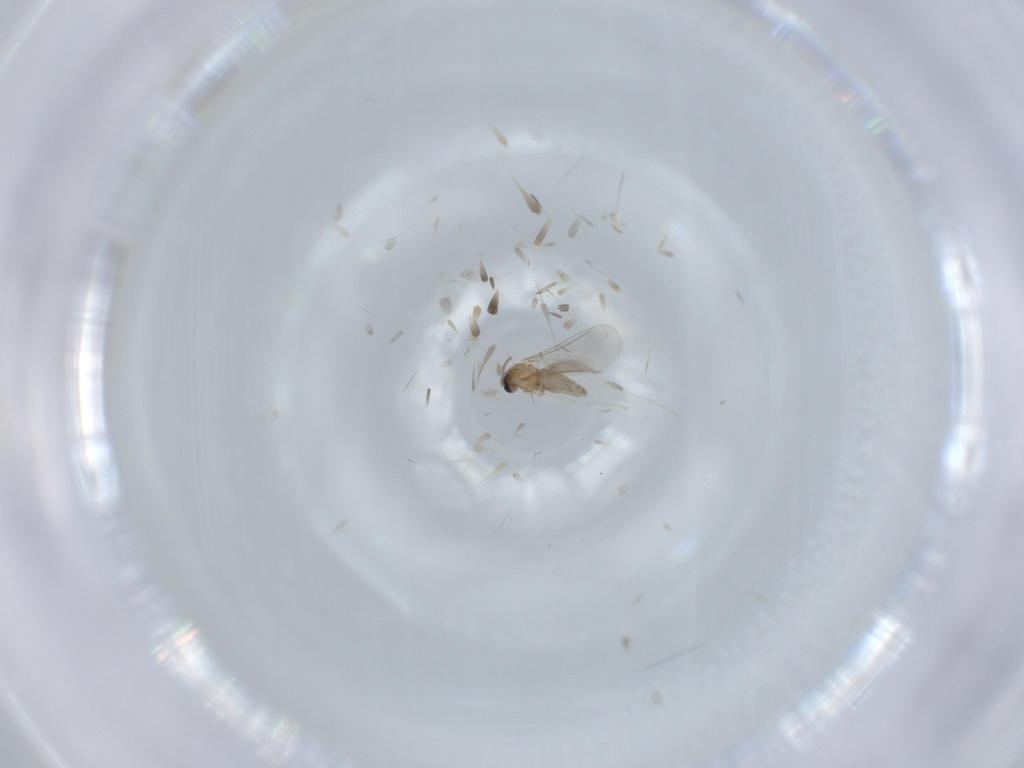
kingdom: Animalia
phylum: Arthropoda
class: Insecta
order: Diptera
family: Cecidomyiidae
